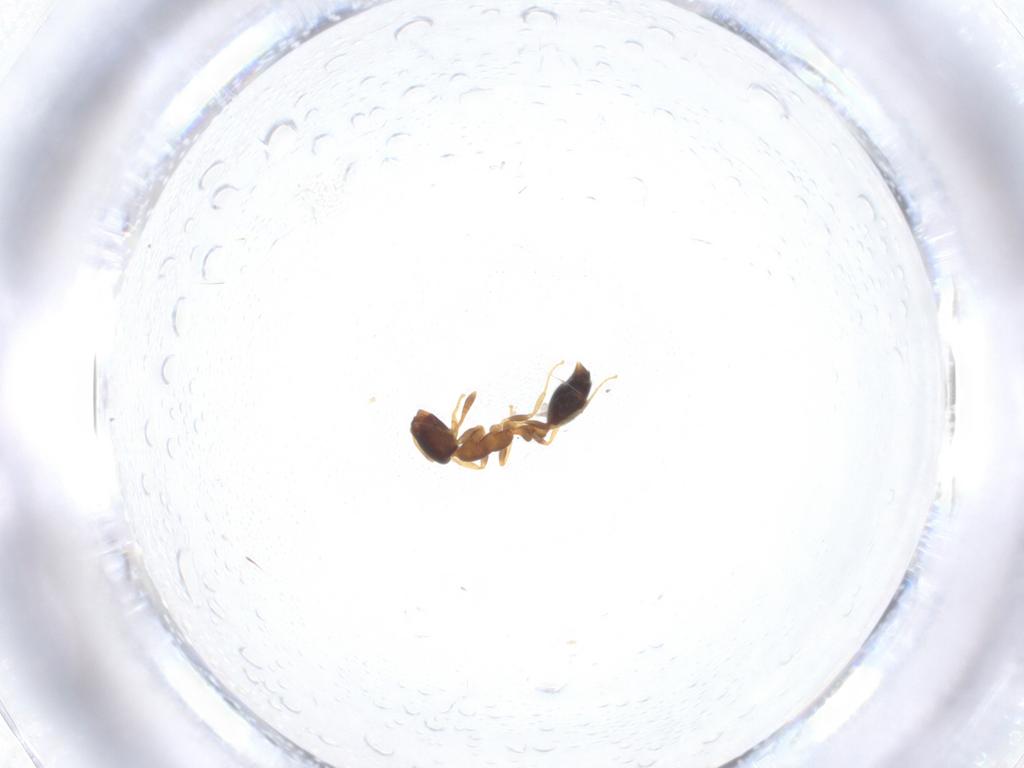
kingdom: Animalia
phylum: Arthropoda
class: Insecta
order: Hymenoptera
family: Formicidae
